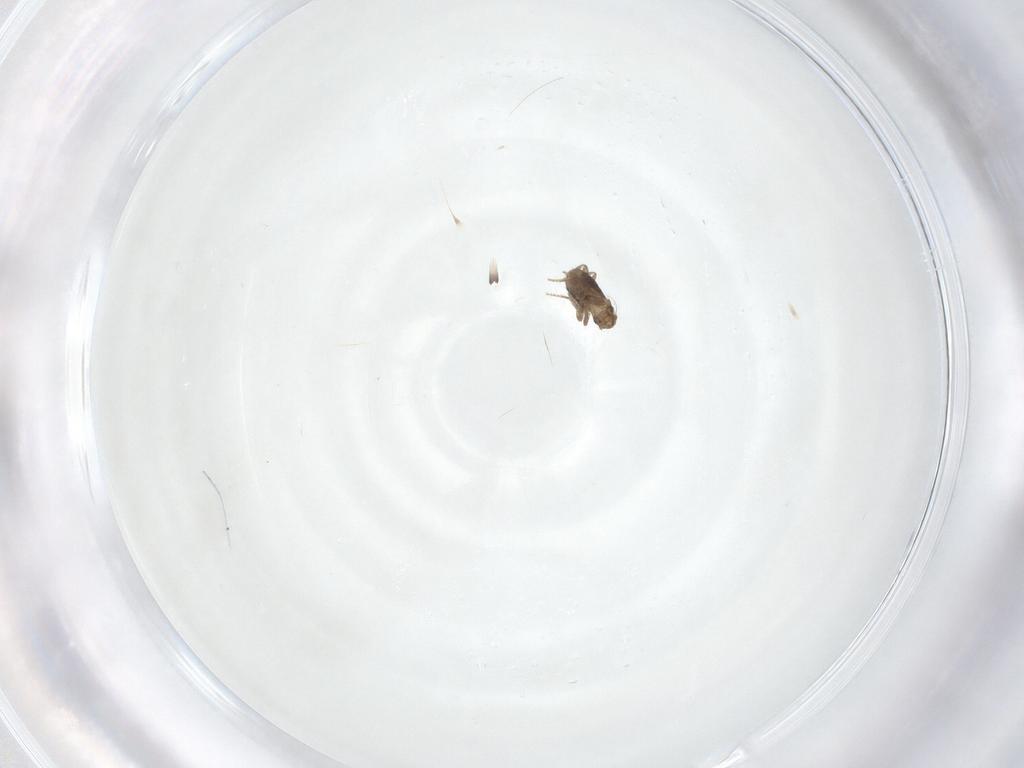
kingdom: Animalia
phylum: Arthropoda
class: Insecta
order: Diptera
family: Phoridae
